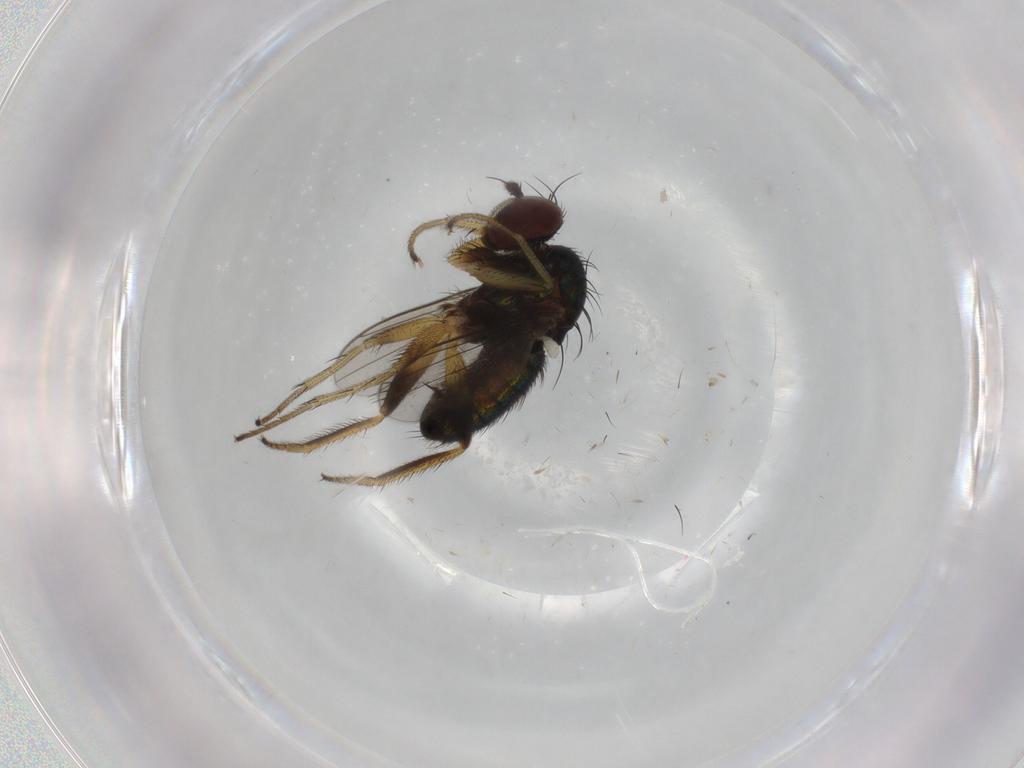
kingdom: Animalia
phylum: Arthropoda
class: Insecta
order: Diptera
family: Dolichopodidae
